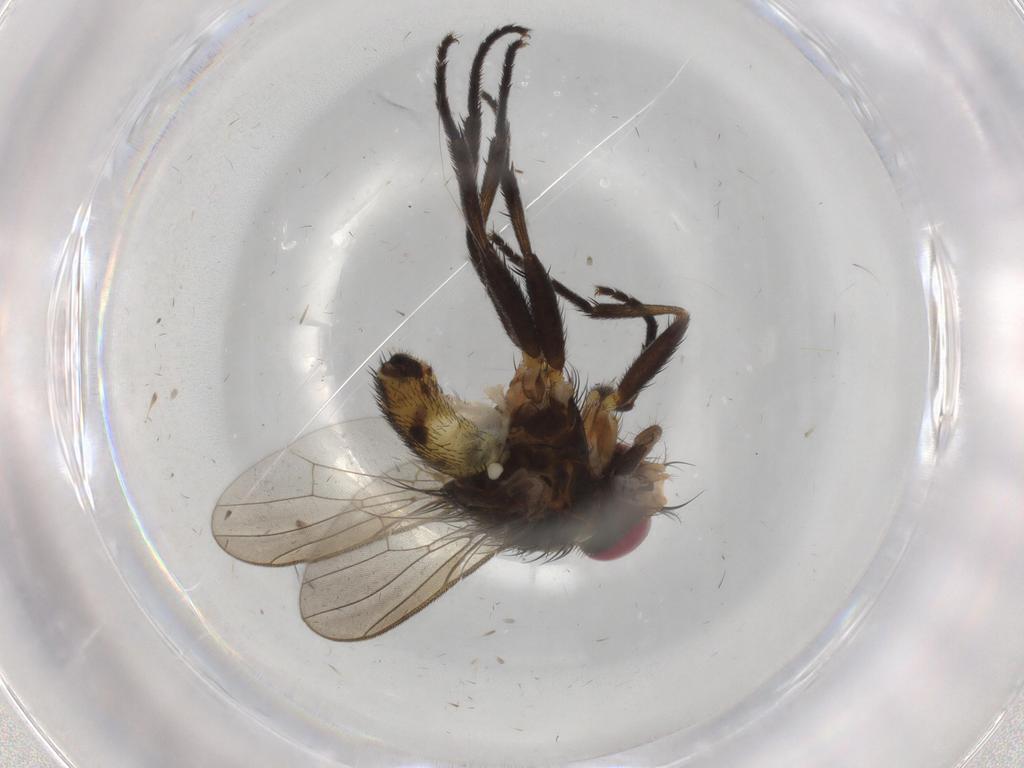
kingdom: Animalia
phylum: Arthropoda
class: Insecta
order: Diptera
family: Anthomyiidae
